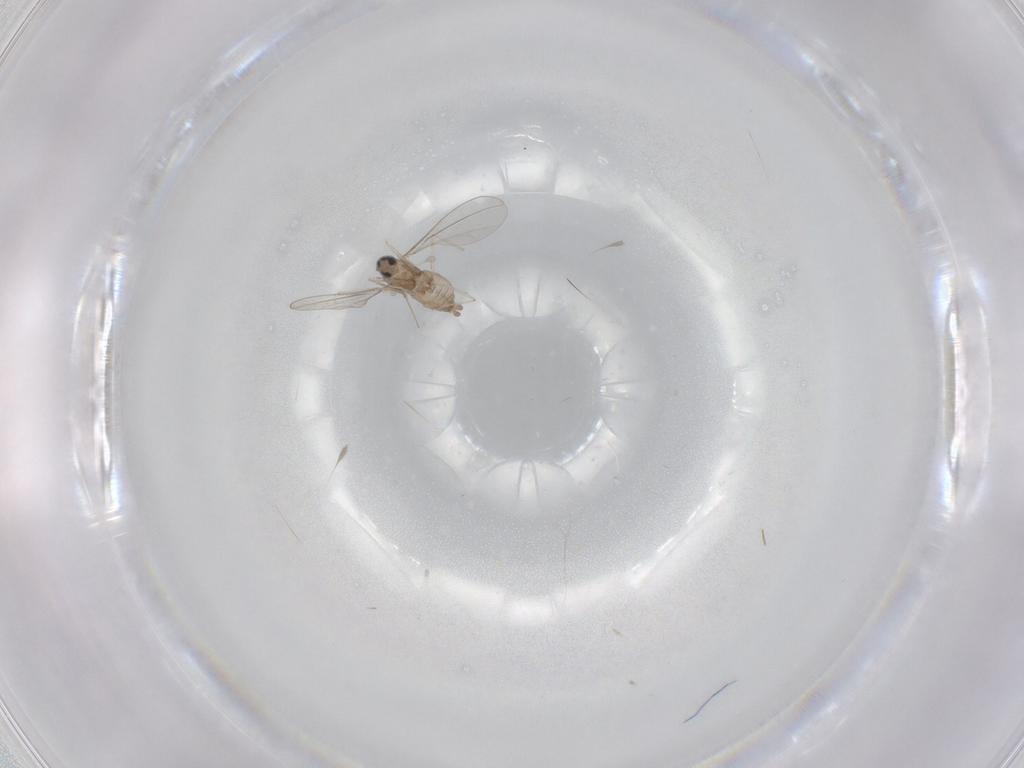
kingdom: Animalia
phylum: Arthropoda
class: Insecta
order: Diptera
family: Cecidomyiidae
